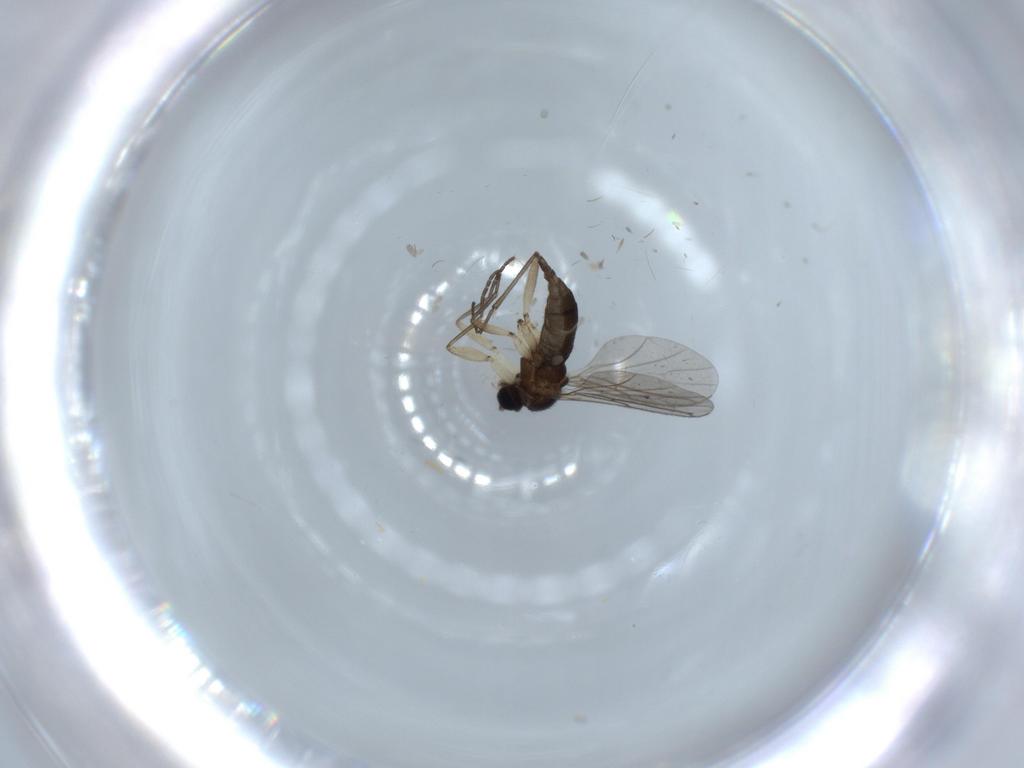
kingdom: Animalia
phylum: Arthropoda
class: Insecta
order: Diptera
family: Sciaridae
